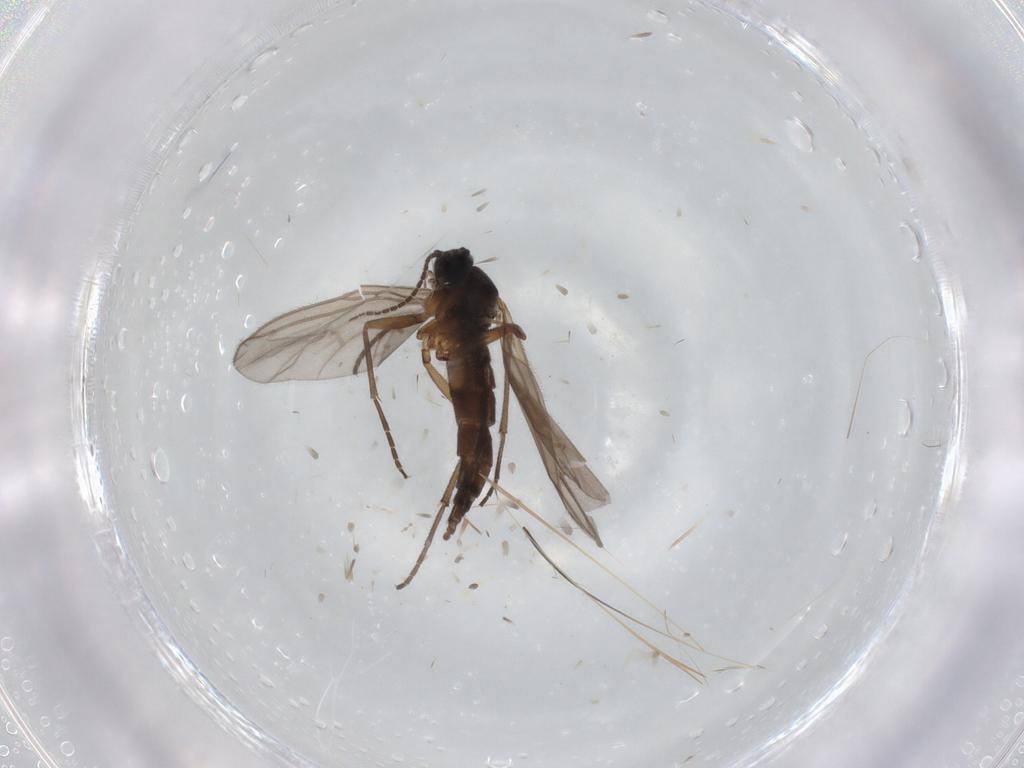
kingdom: Animalia
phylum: Arthropoda
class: Insecta
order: Diptera
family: Sciaridae
